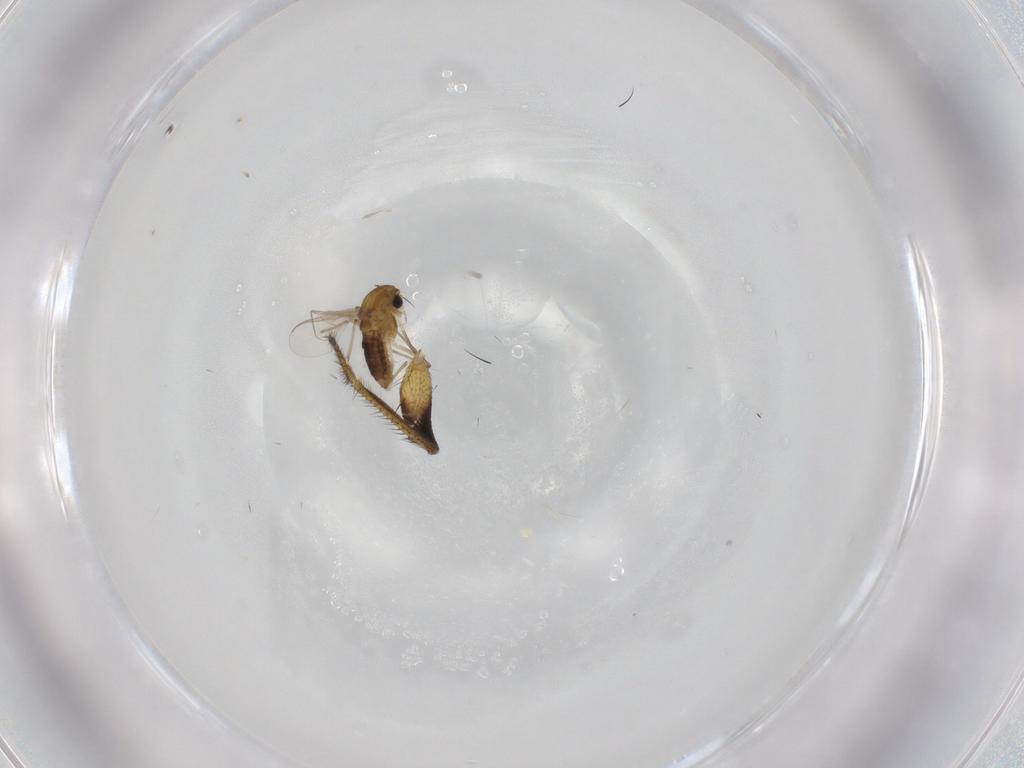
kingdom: Animalia
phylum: Arthropoda
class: Insecta
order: Diptera
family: Dolichopodidae
